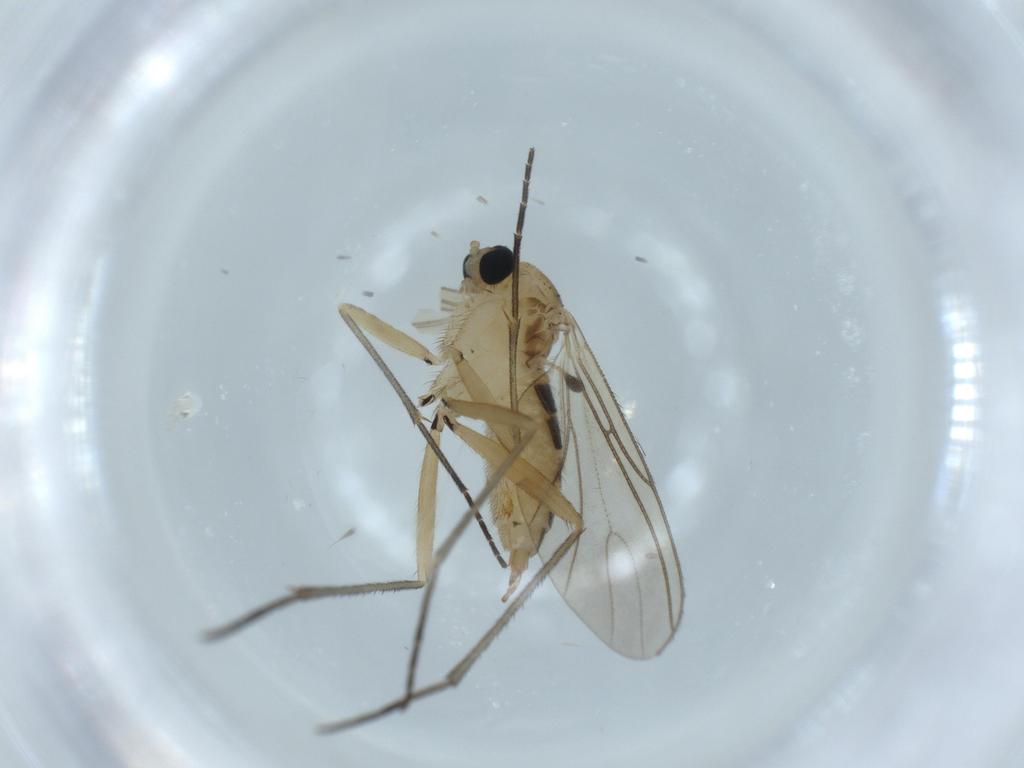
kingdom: Animalia
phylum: Arthropoda
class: Insecta
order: Diptera
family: Sciaridae
